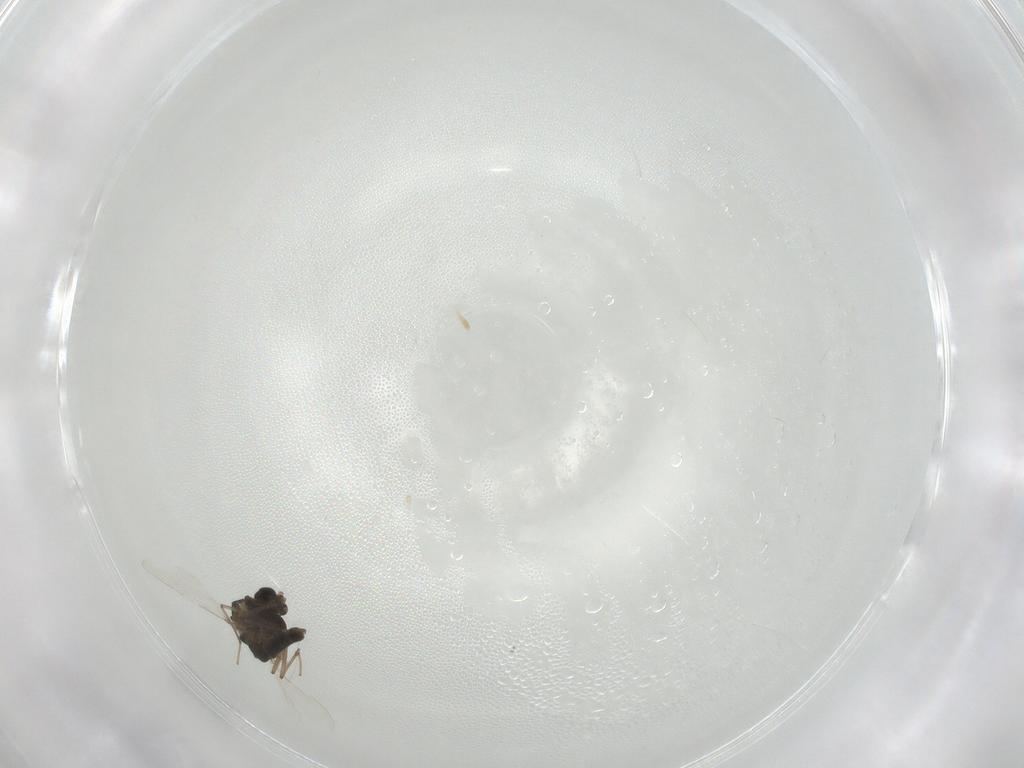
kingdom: Animalia
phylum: Arthropoda
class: Insecta
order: Diptera
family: Chironomidae
